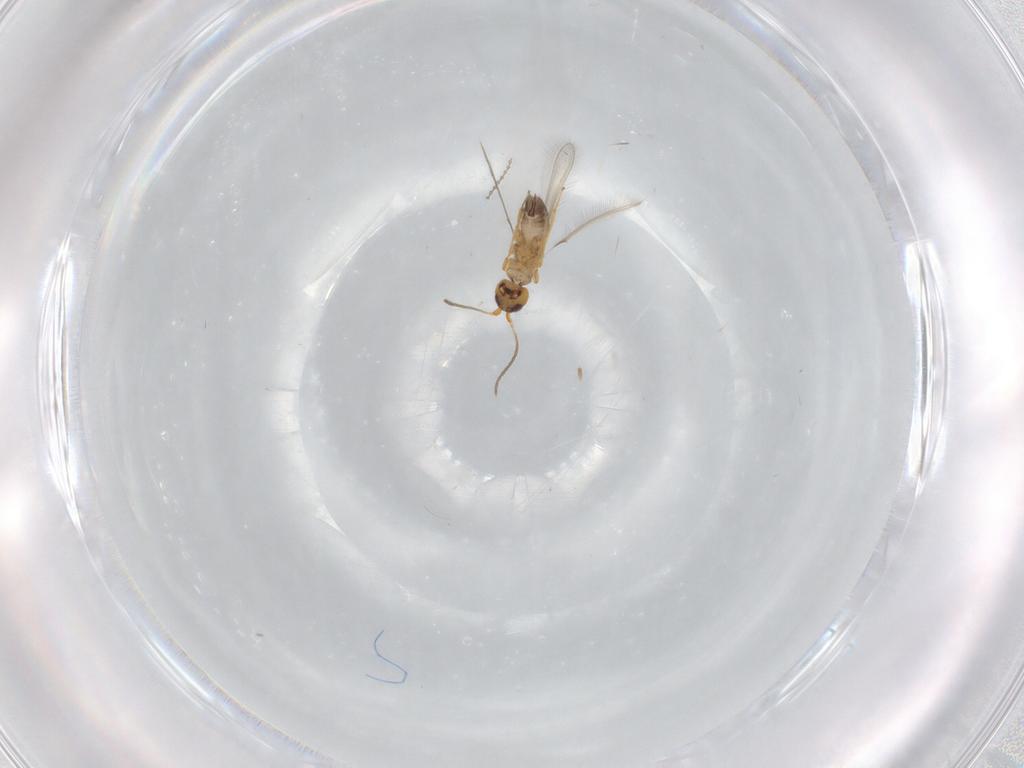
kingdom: Animalia
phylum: Arthropoda
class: Insecta
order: Hymenoptera
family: Mymaridae
